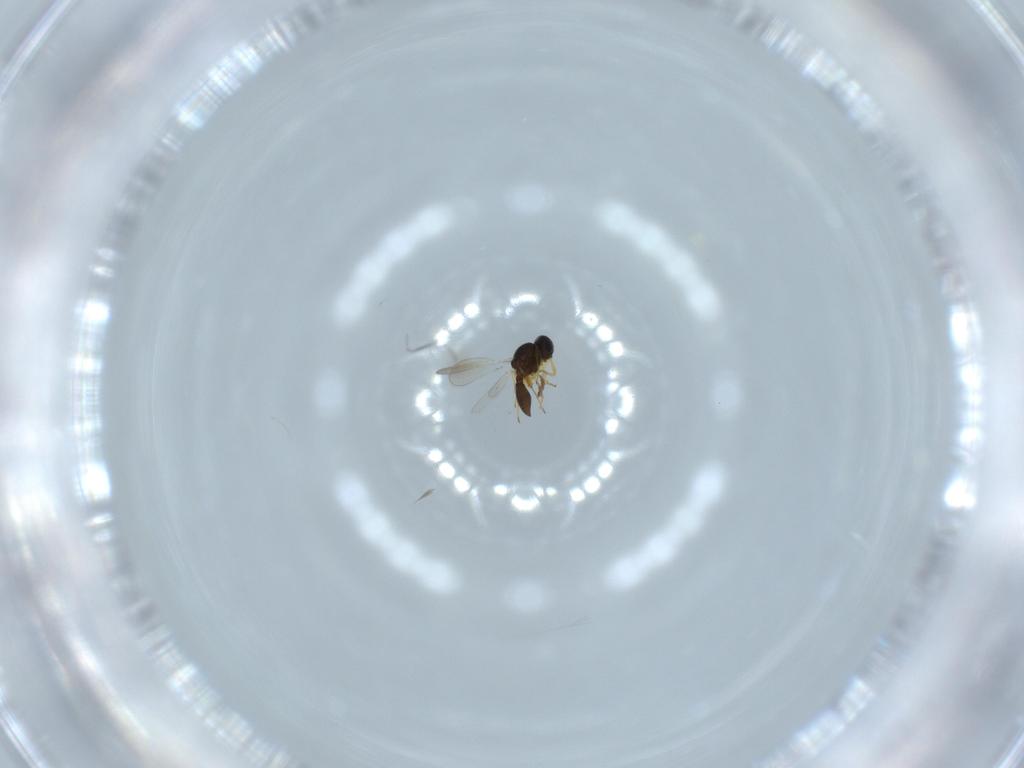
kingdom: Animalia
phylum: Arthropoda
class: Insecta
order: Hymenoptera
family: Platygastridae
